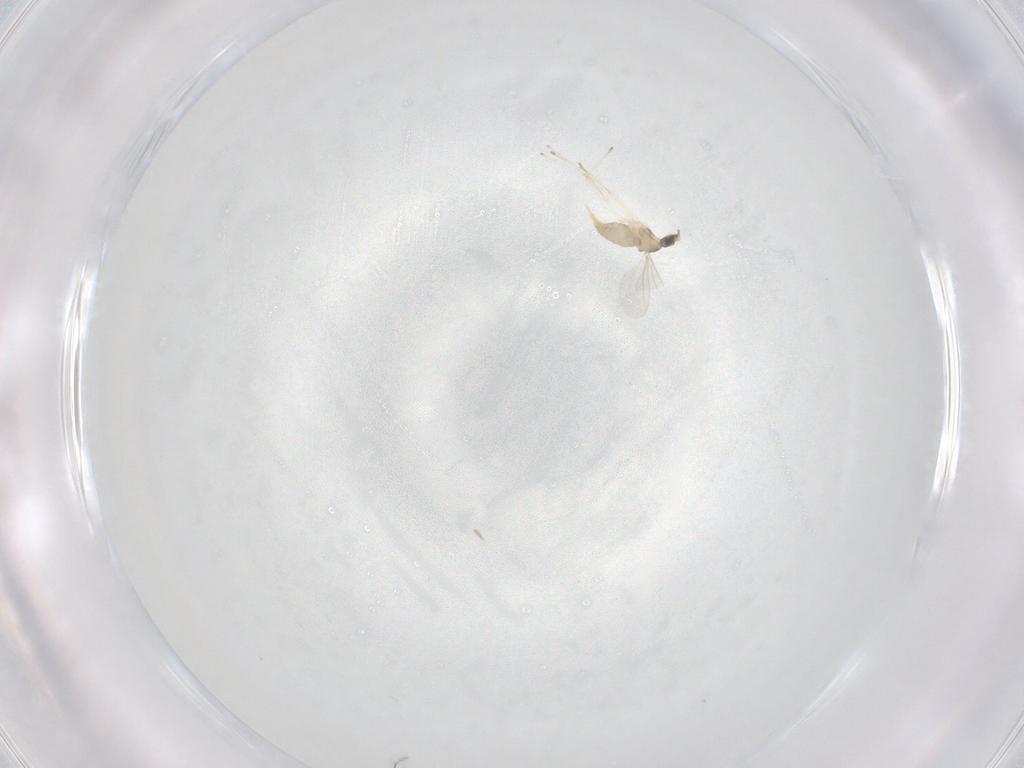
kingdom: Animalia
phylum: Arthropoda
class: Insecta
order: Diptera
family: Cecidomyiidae
